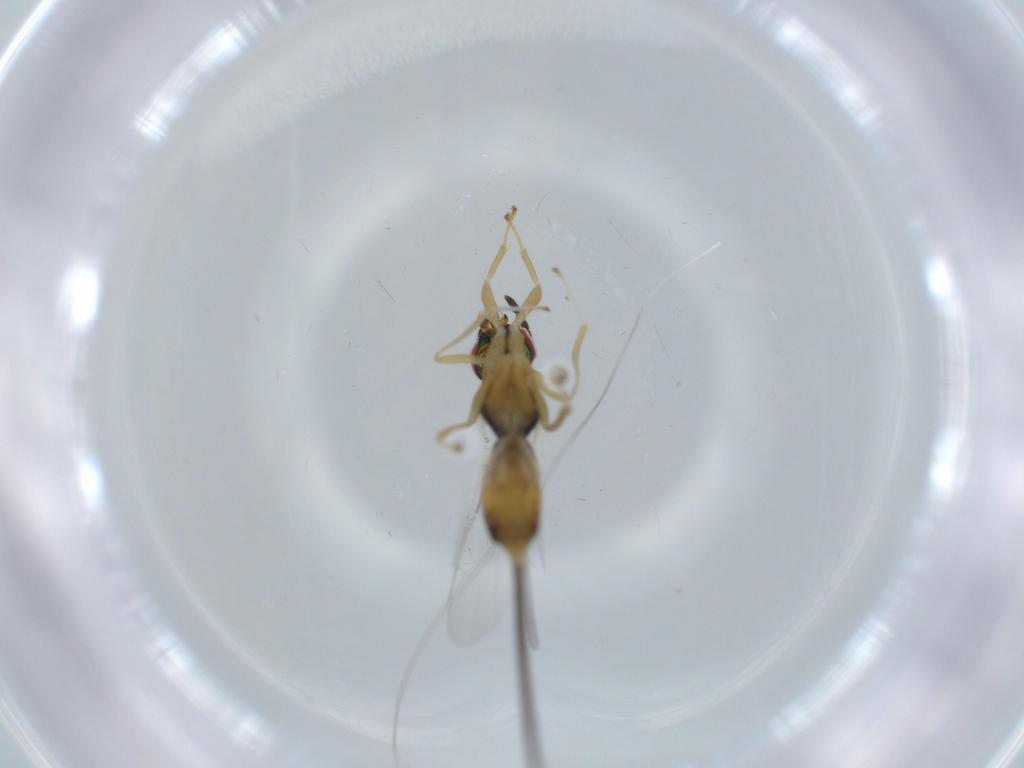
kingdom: Animalia
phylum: Arthropoda
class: Insecta
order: Hymenoptera
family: Torymidae
